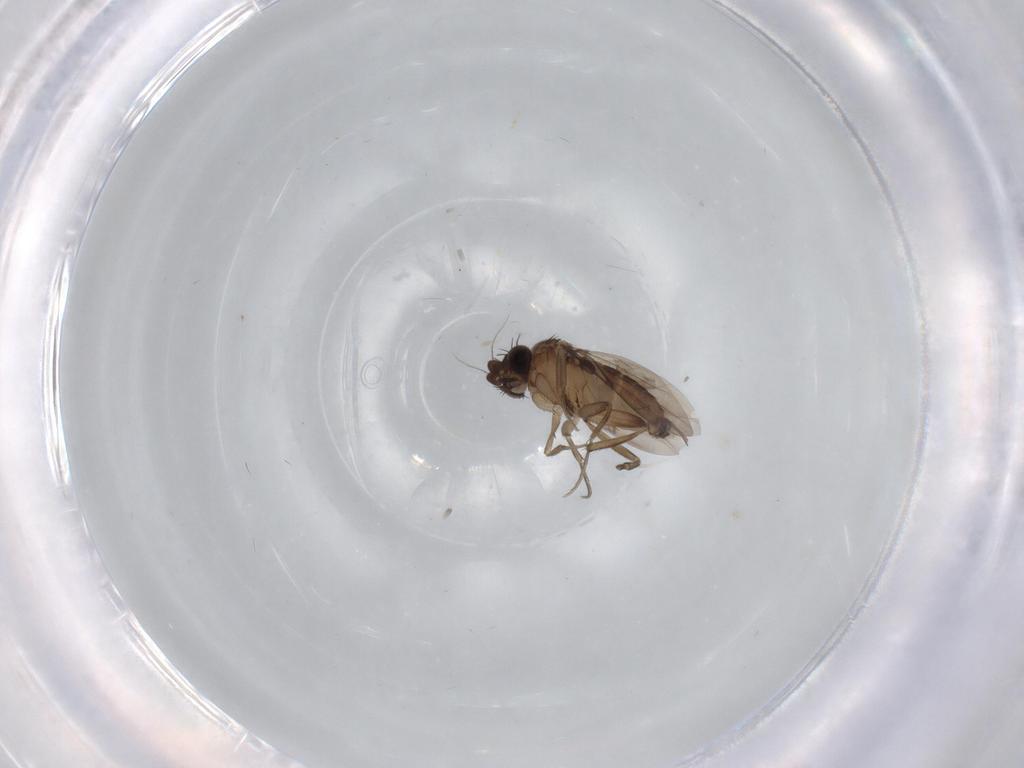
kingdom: Animalia
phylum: Arthropoda
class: Insecta
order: Diptera
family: Phoridae
